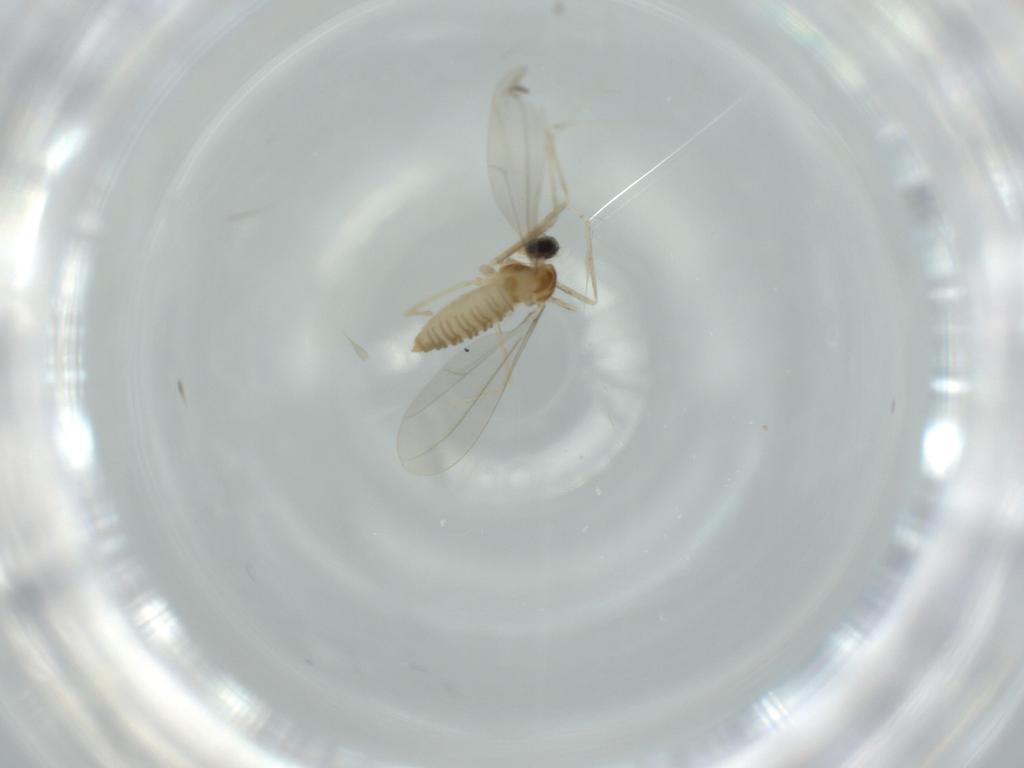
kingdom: Animalia
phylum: Arthropoda
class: Insecta
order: Diptera
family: Cecidomyiidae
